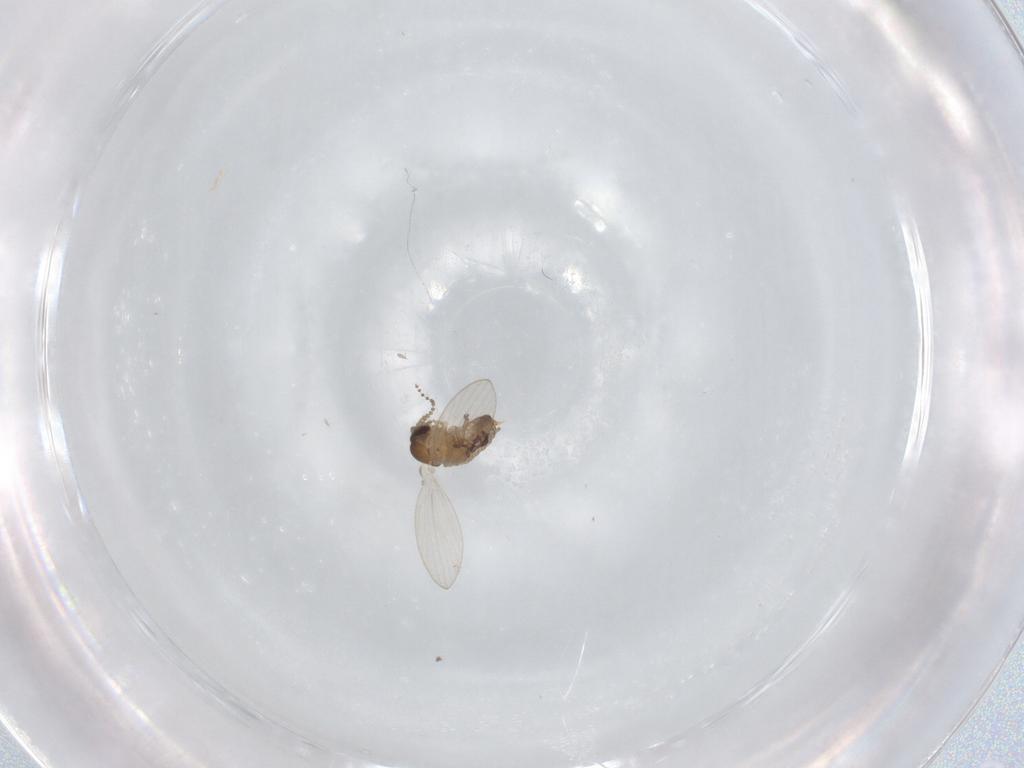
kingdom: Animalia
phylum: Arthropoda
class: Insecta
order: Diptera
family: Psychodidae
